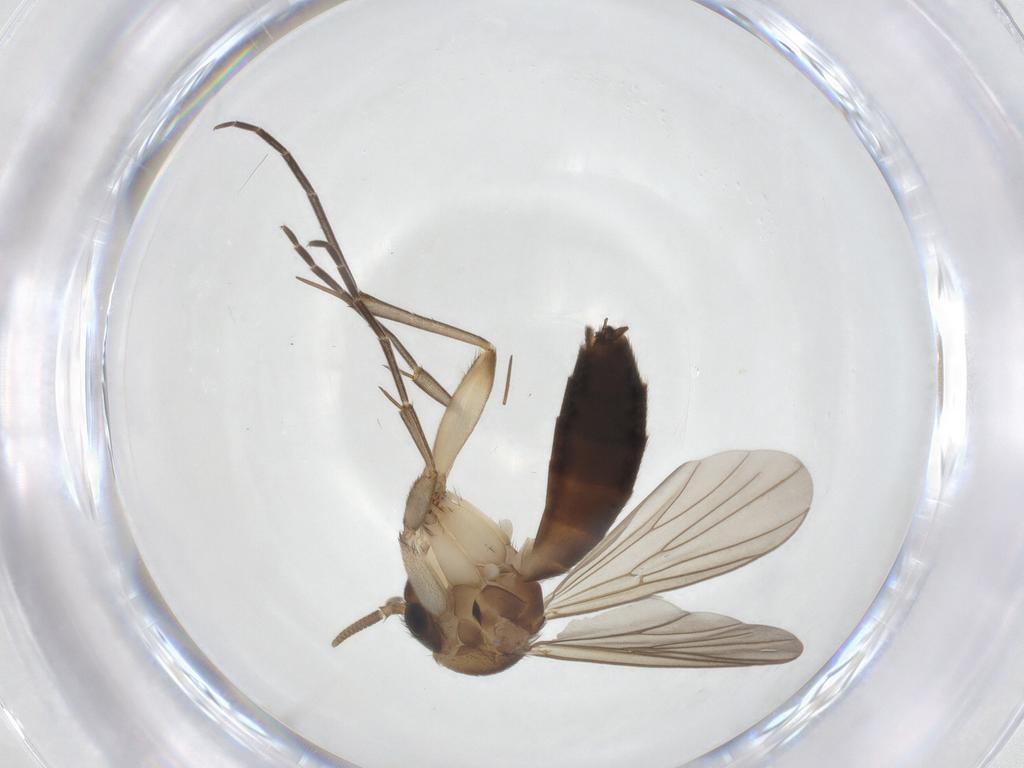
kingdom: Animalia
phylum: Arthropoda
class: Insecta
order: Diptera
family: Mycetophilidae
